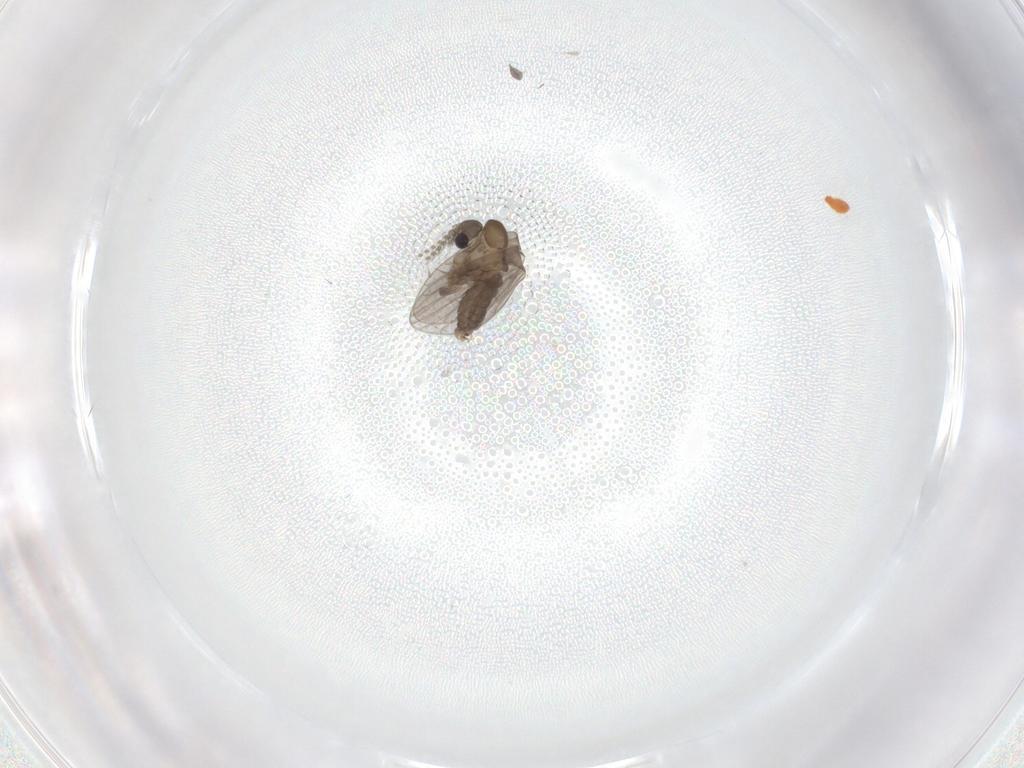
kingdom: Animalia
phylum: Arthropoda
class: Insecta
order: Diptera
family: Psychodidae
